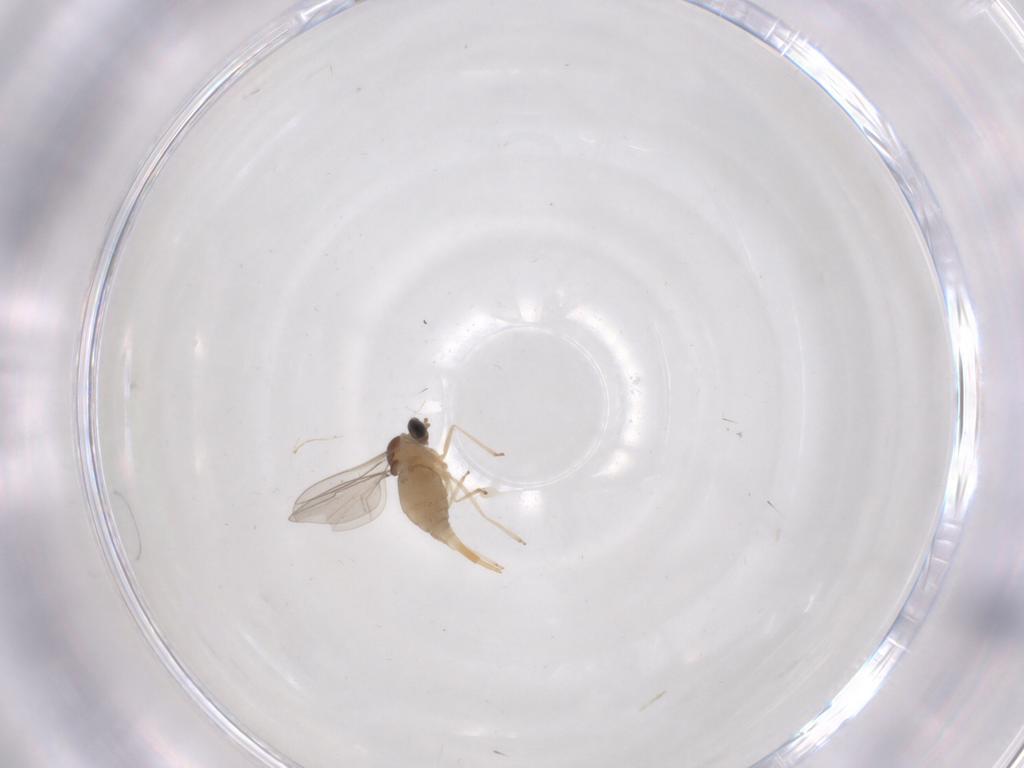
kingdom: Animalia
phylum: Arthropoda
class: Insecta
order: Diptera
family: Cecidomyiidae
